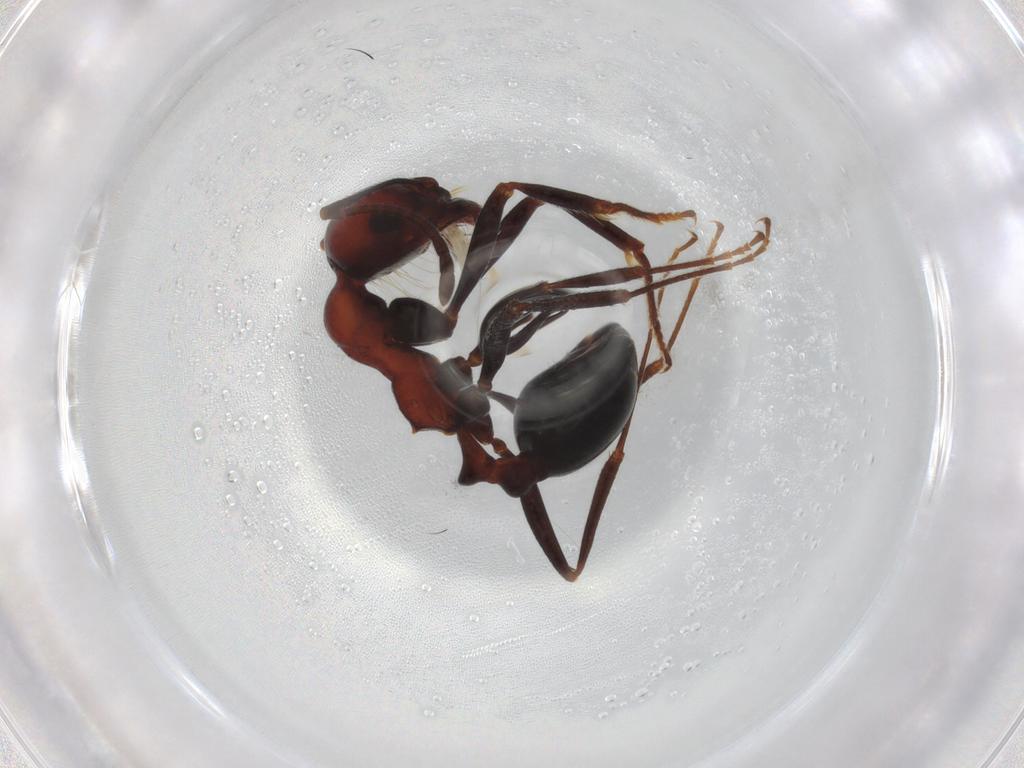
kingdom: Animalia
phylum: Arthropoda
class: Insecta
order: Hymenoptera
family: Formicidae
